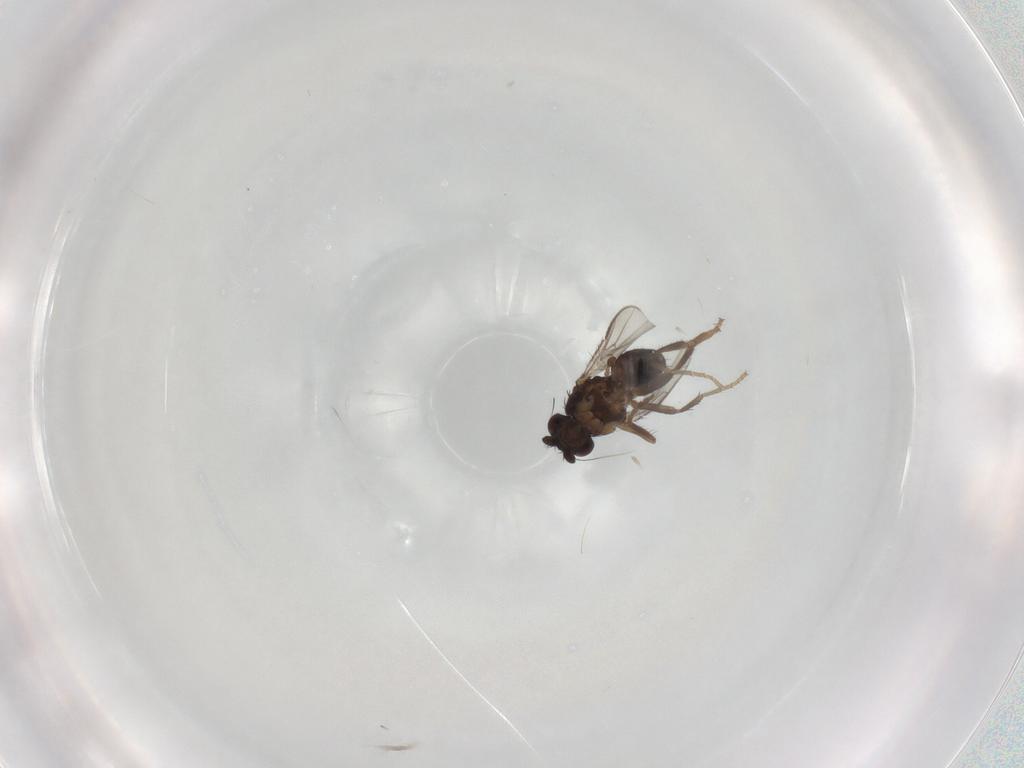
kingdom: Animalia
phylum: Arthropoda
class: Insecta
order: Diptera
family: Sphaeroceridae
